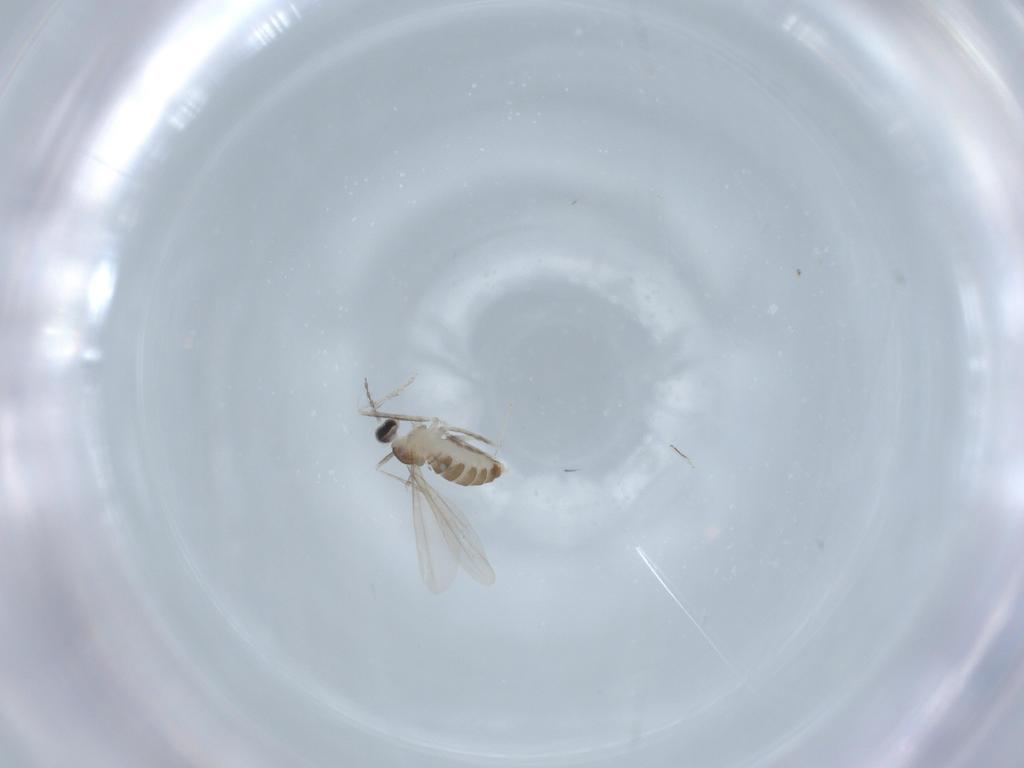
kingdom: Animalia
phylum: Arthropoda
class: Insecta
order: Diptera
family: Cecidomyiidae
